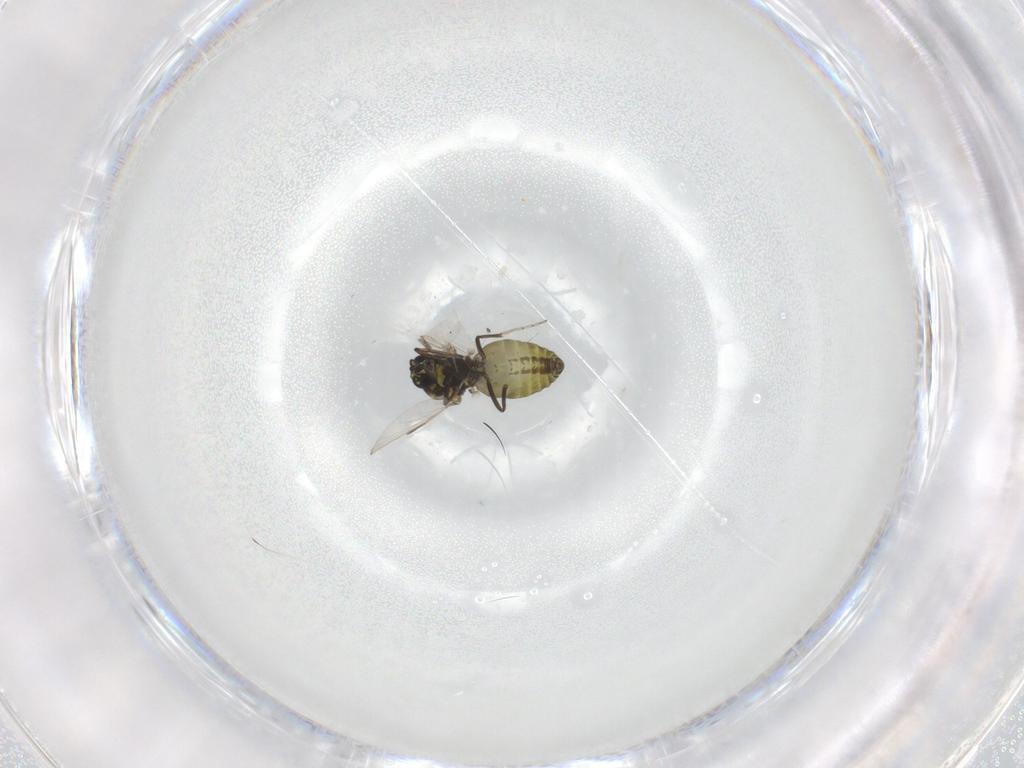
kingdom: Animalia
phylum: Arthropoda
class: Insecta
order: Diptera
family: Ceratopogonidae
